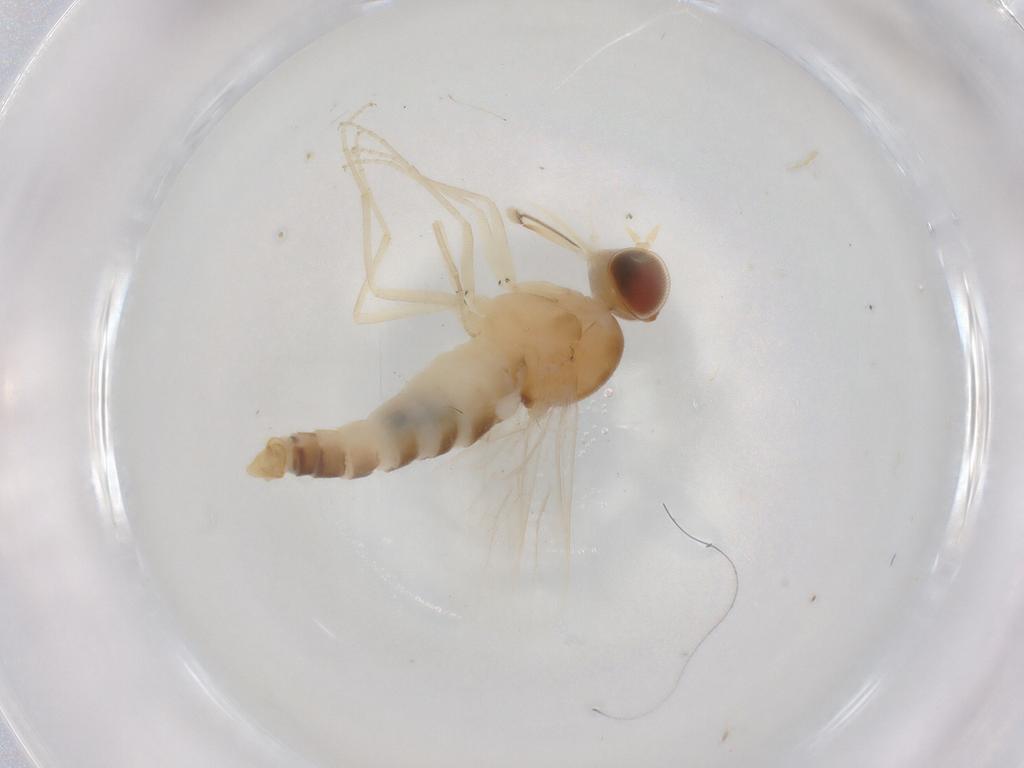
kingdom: Animalia
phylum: Arthropoda
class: Insecta
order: Diptera
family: Scenopinidae
